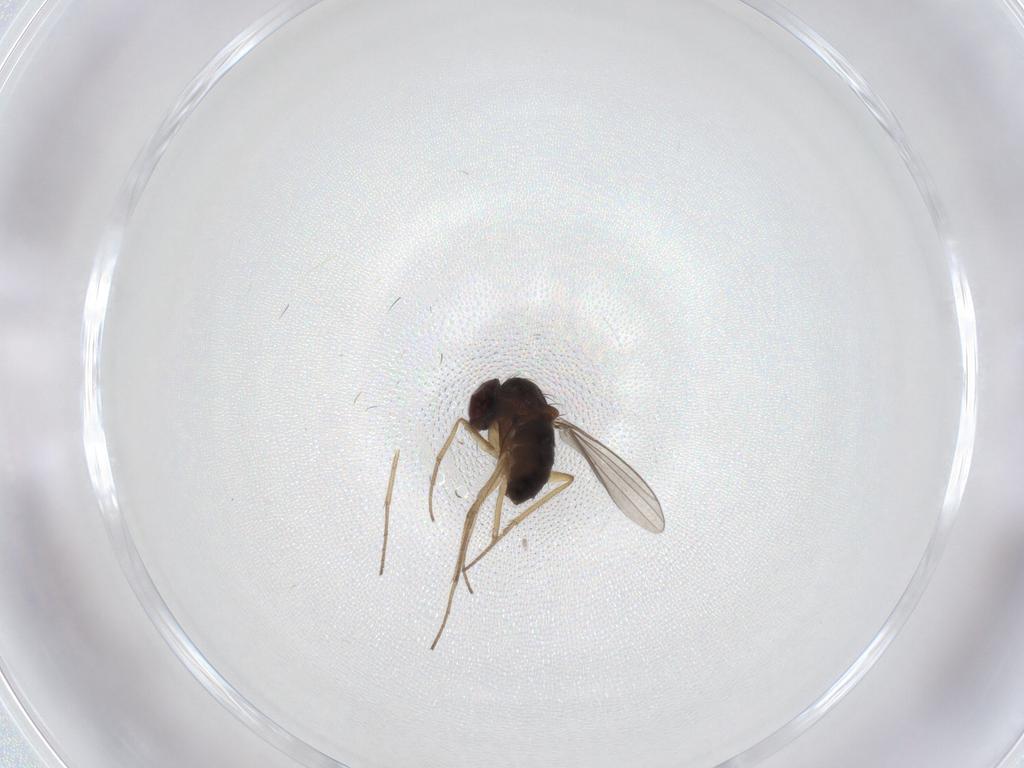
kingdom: Animalia
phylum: Arthropoda
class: Insecta
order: Diptera
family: Dolichopodidae
